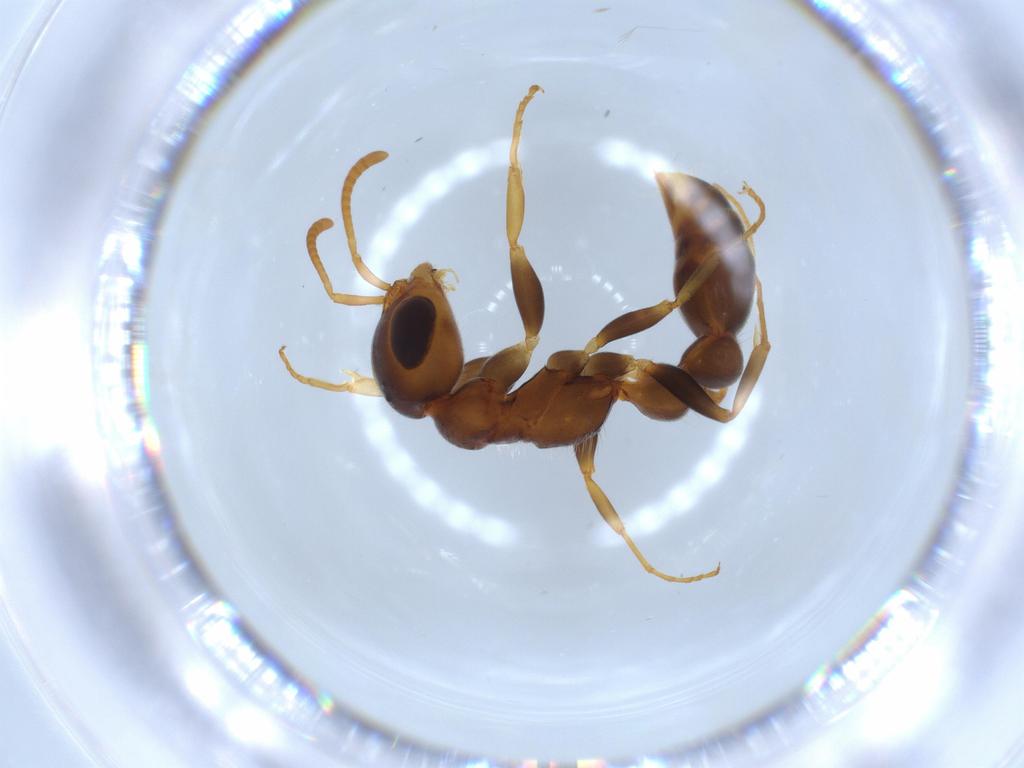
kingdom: Animalia
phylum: Arthropoda
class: Insecta
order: Hymenoptera
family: Formicidae
